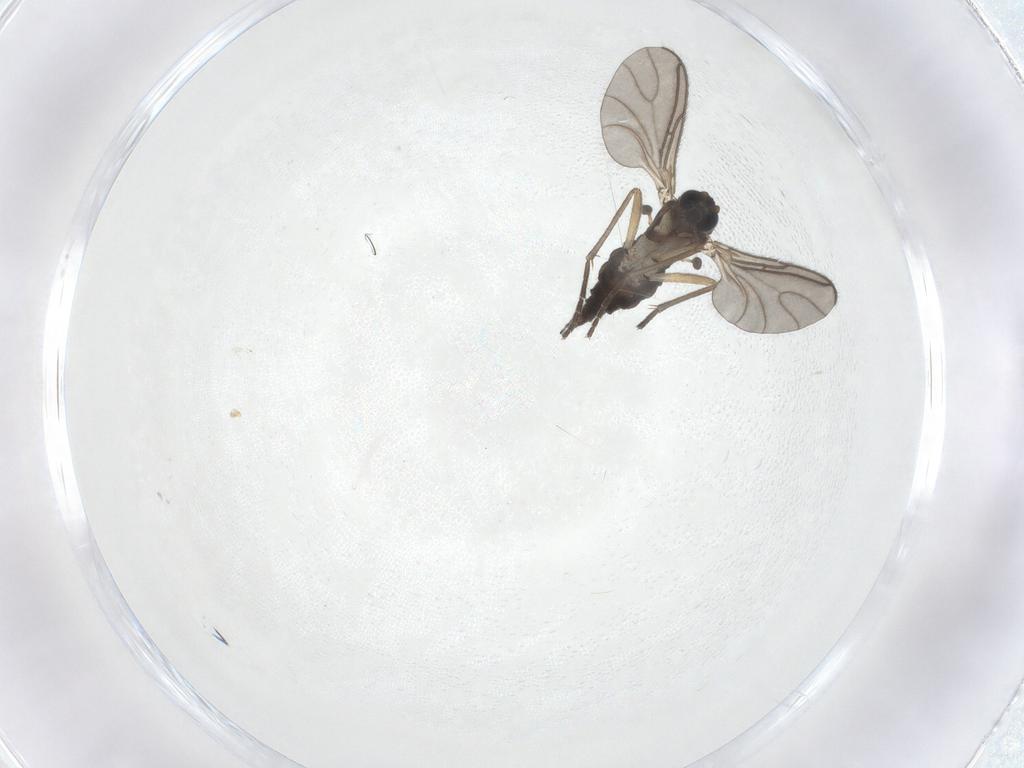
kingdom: Animalia
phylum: Arthropoda
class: Insecta
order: Diptera
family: Sciaridae
